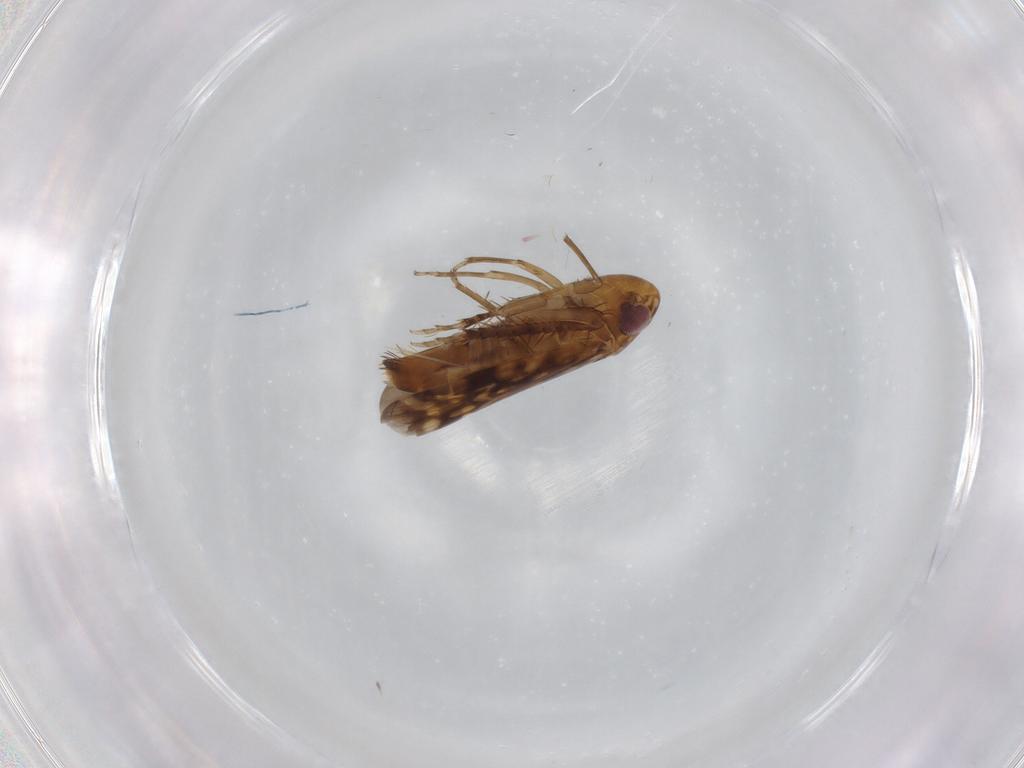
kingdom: Animalia
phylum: Arthropoda
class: Insecta
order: Hemiptera
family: Cicadellidae
